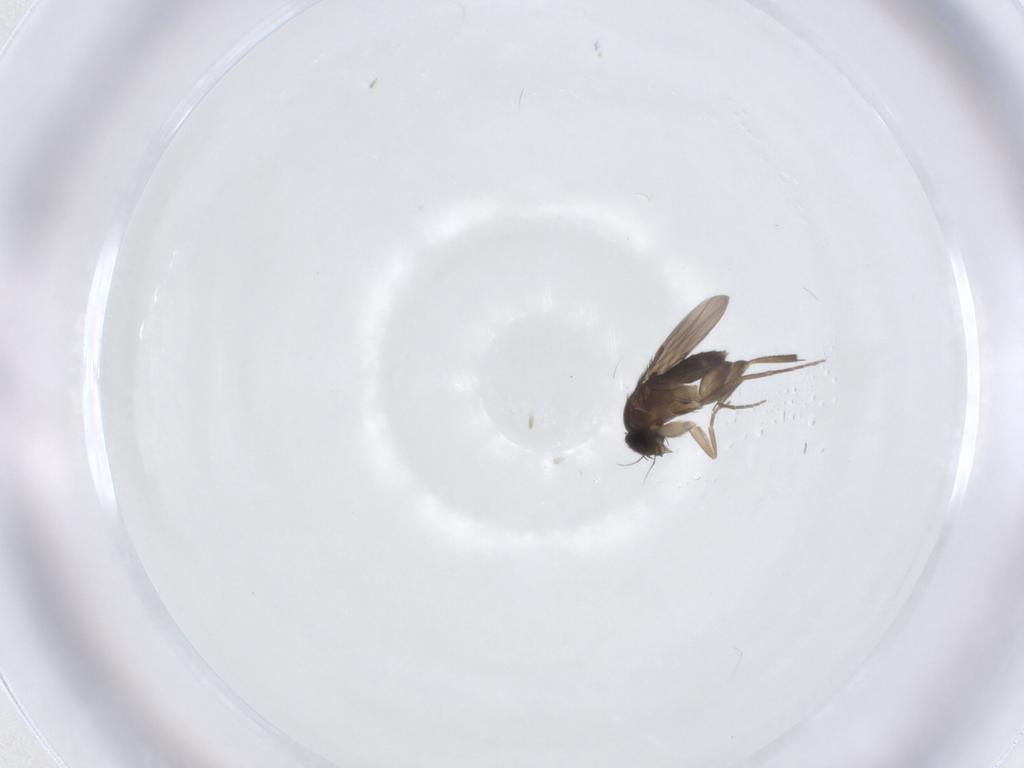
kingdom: Animalia
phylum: Arthropoda
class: Insecta
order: Diptera
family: Phoridae
